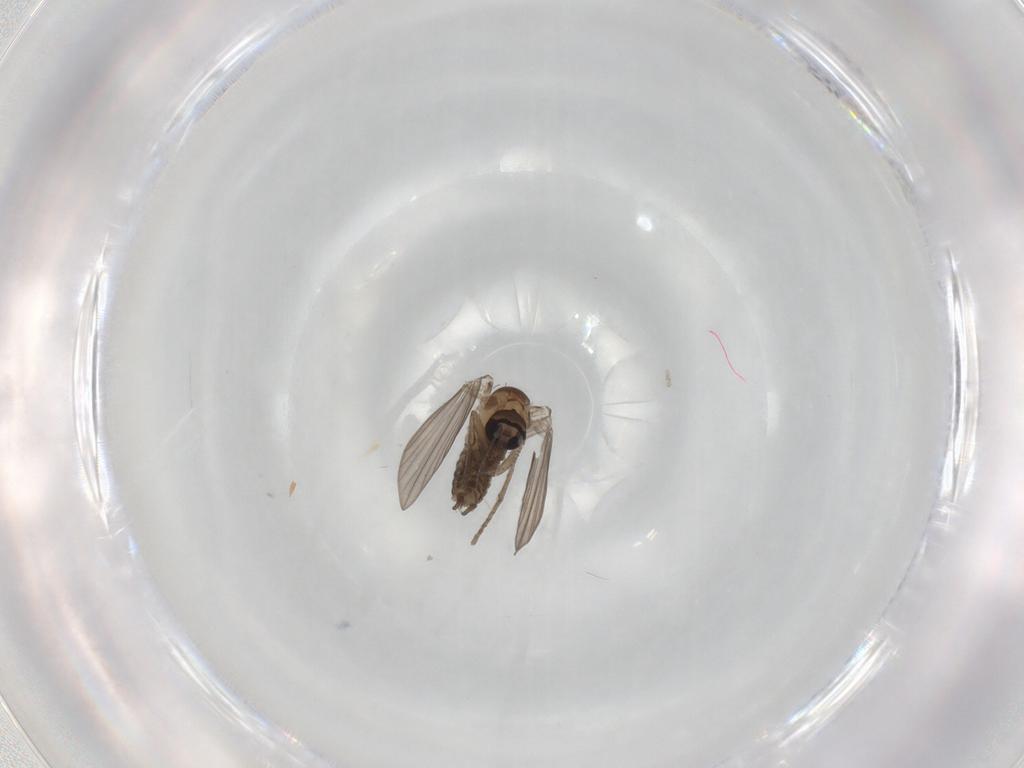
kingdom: Animalia
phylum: Arthropoda
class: Insecta
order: Diptera
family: Psychodidae
